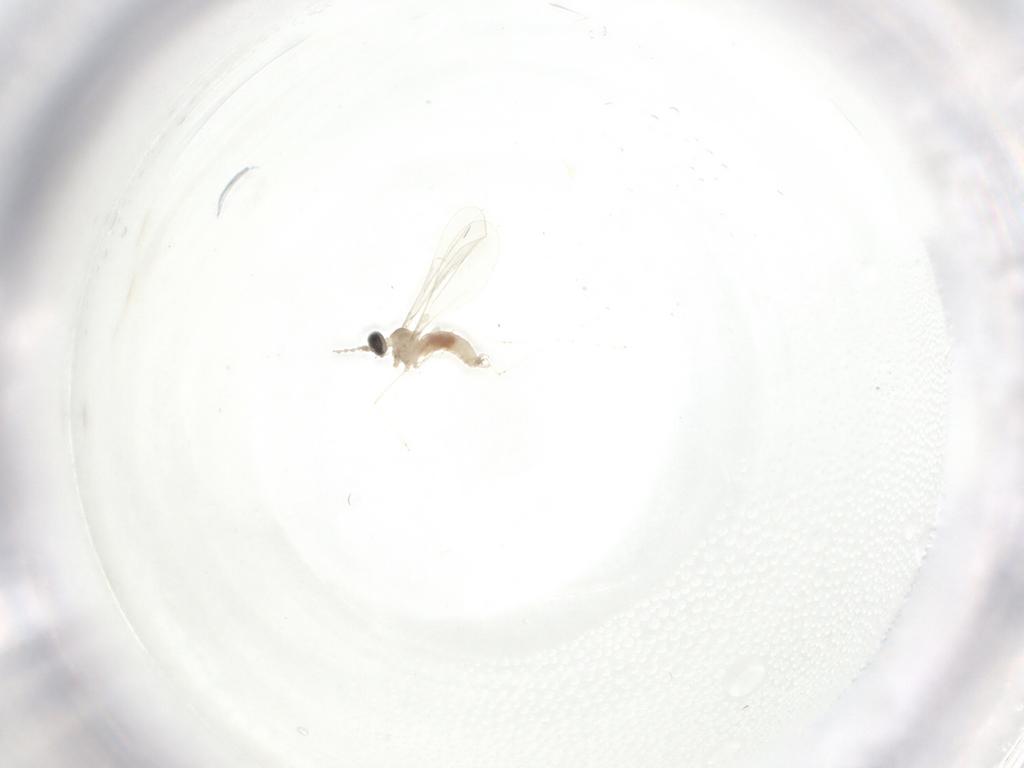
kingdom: Animalia
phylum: Arthropoda
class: Insecta
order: Diptera
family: Cecidomyiidae
